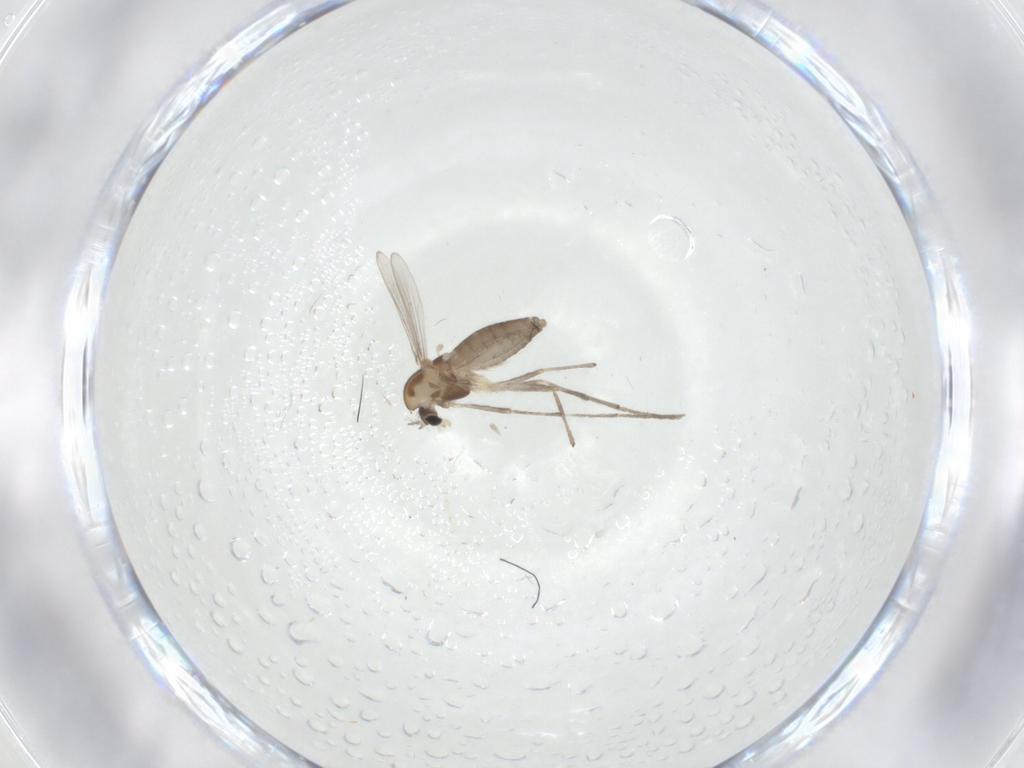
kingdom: Animalia
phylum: Arthropoda
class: Insecta
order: Diptera
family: Chironomidae
